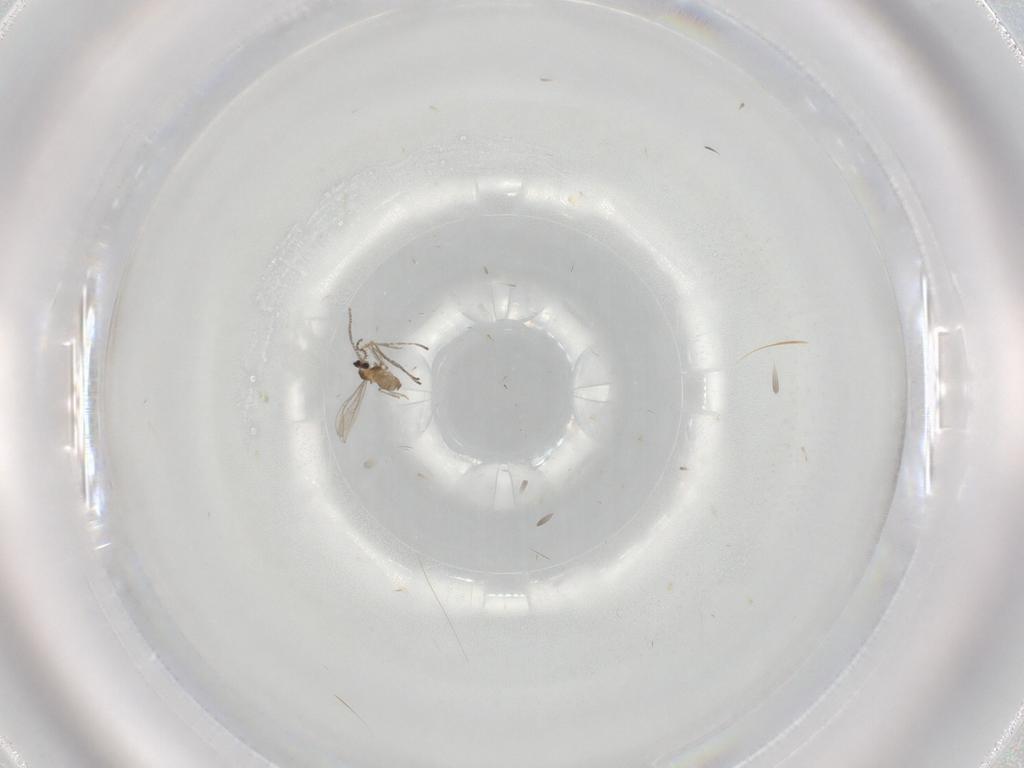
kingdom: Animalia
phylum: Arthropoda
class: Insecta
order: Diptera
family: Cecidomyiidae
